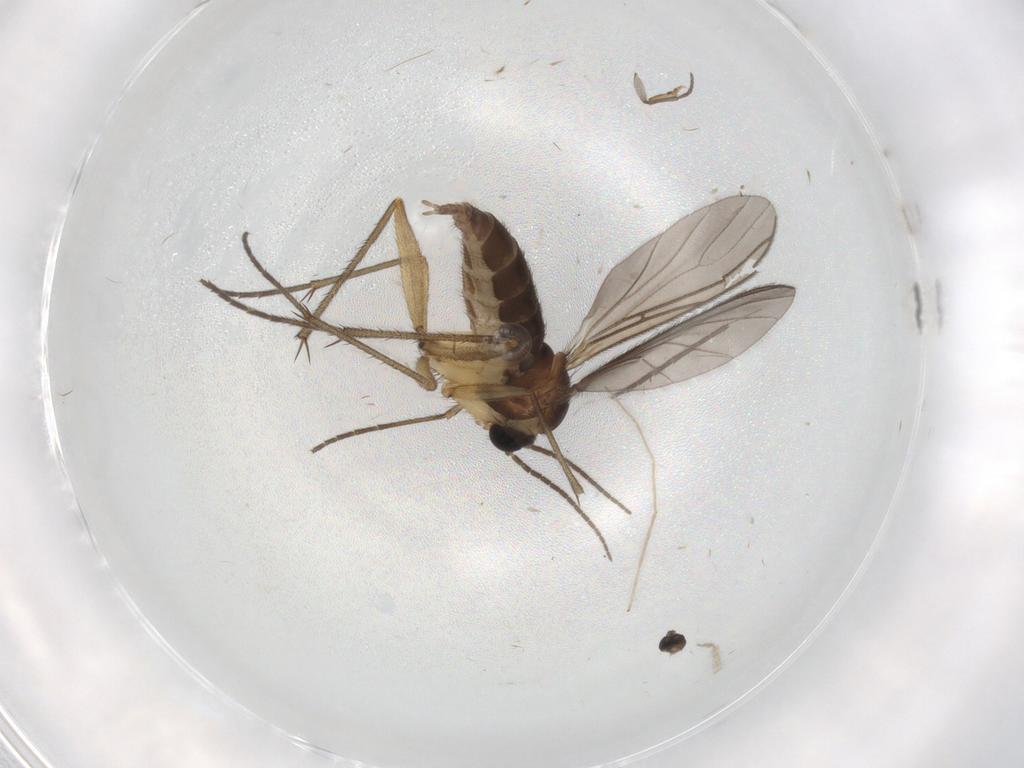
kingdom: Animalia
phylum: Arthropoda
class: Insecta
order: Diptera
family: Sciaridae
